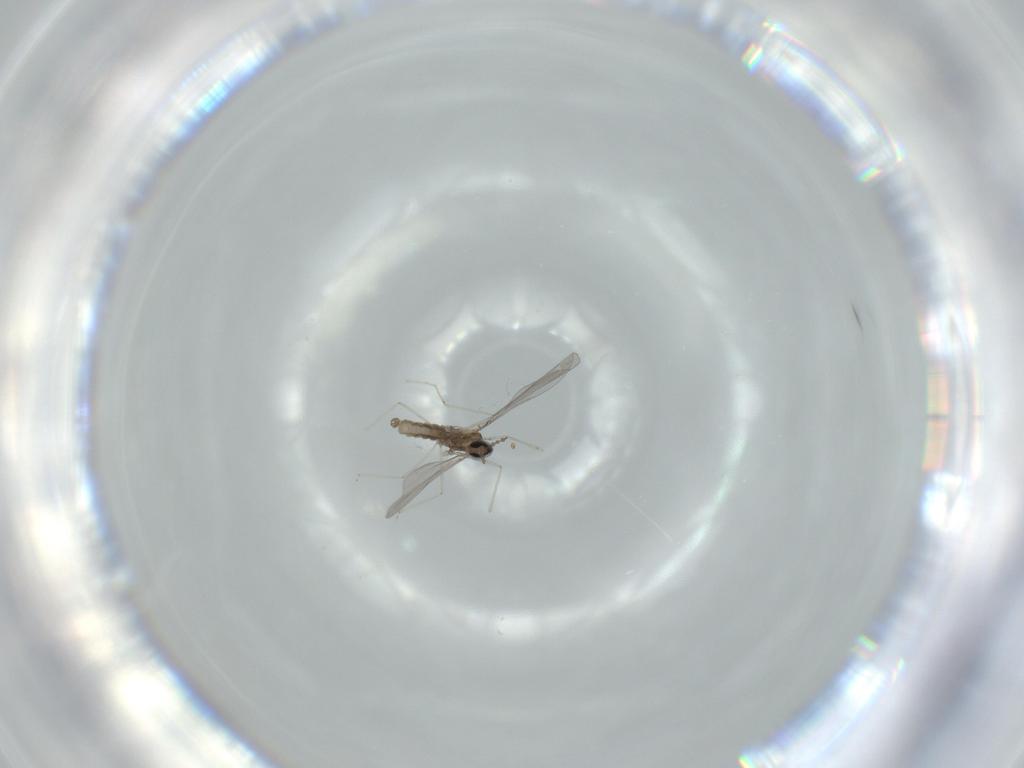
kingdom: Animalia
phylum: Arthropoda
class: Insecta
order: Diptera
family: Cecidomyiidae
